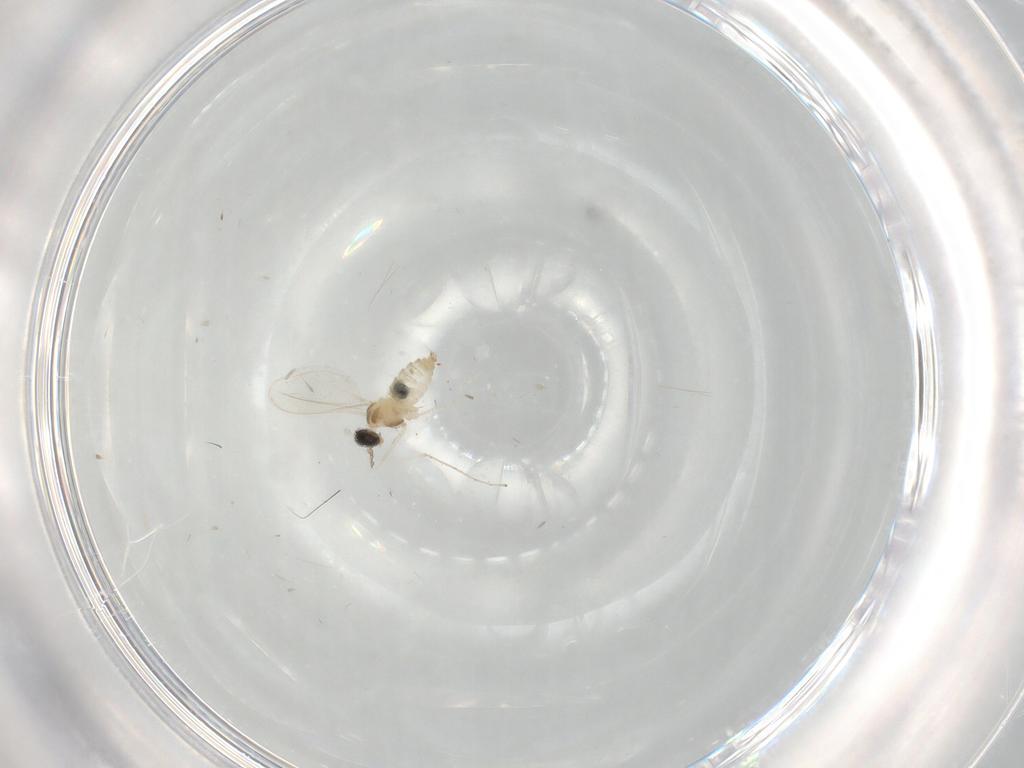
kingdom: Animalia
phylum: Arthropoda
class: Insecta
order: Diptera
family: Cecidomyiidae
